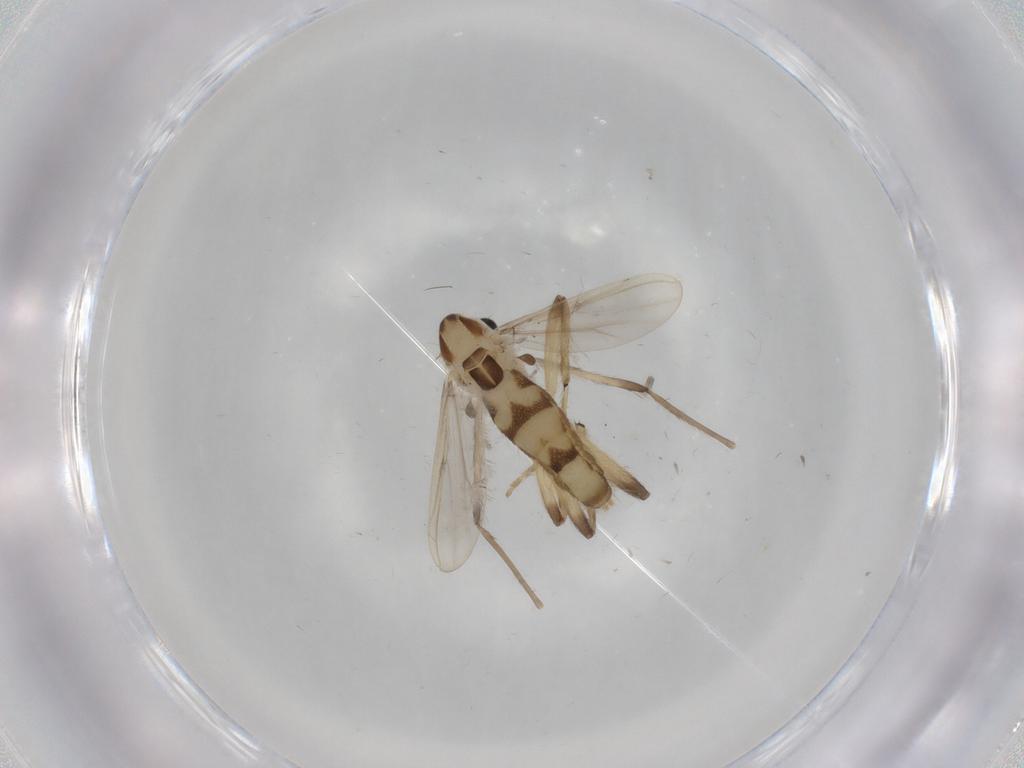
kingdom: Animalia
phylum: Arthropoda
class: Insecta
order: Diptera
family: Chironomidae
